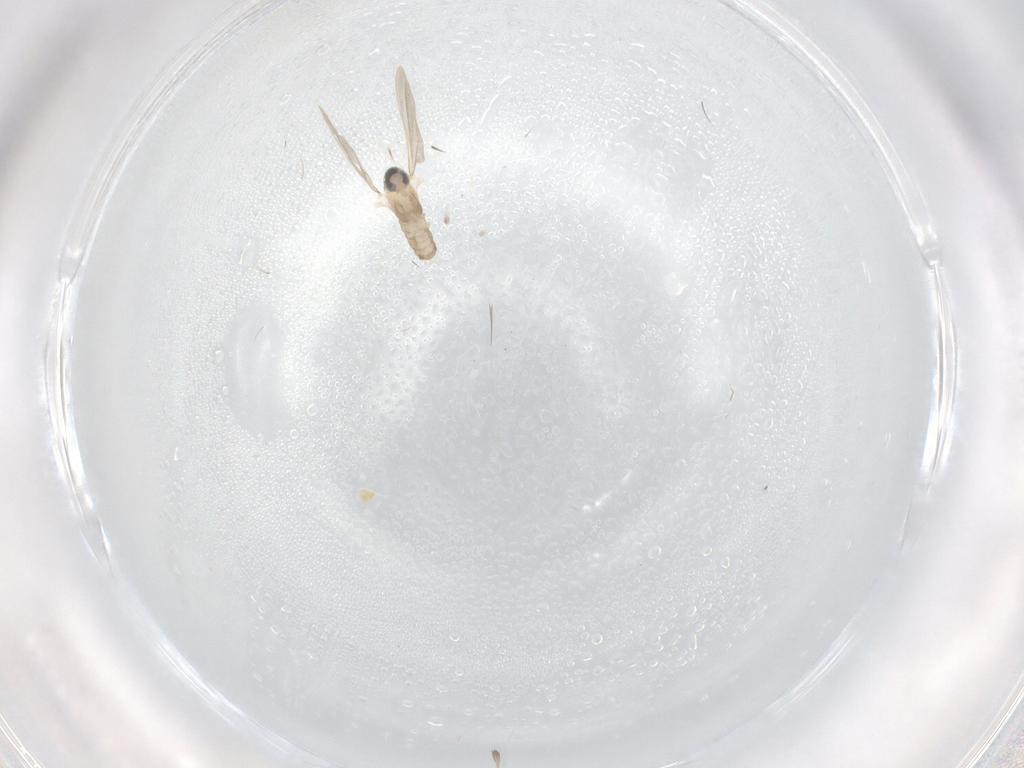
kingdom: Animalia
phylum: Arthropoda
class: Insecta
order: Diptera
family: Cecidomyiidae
